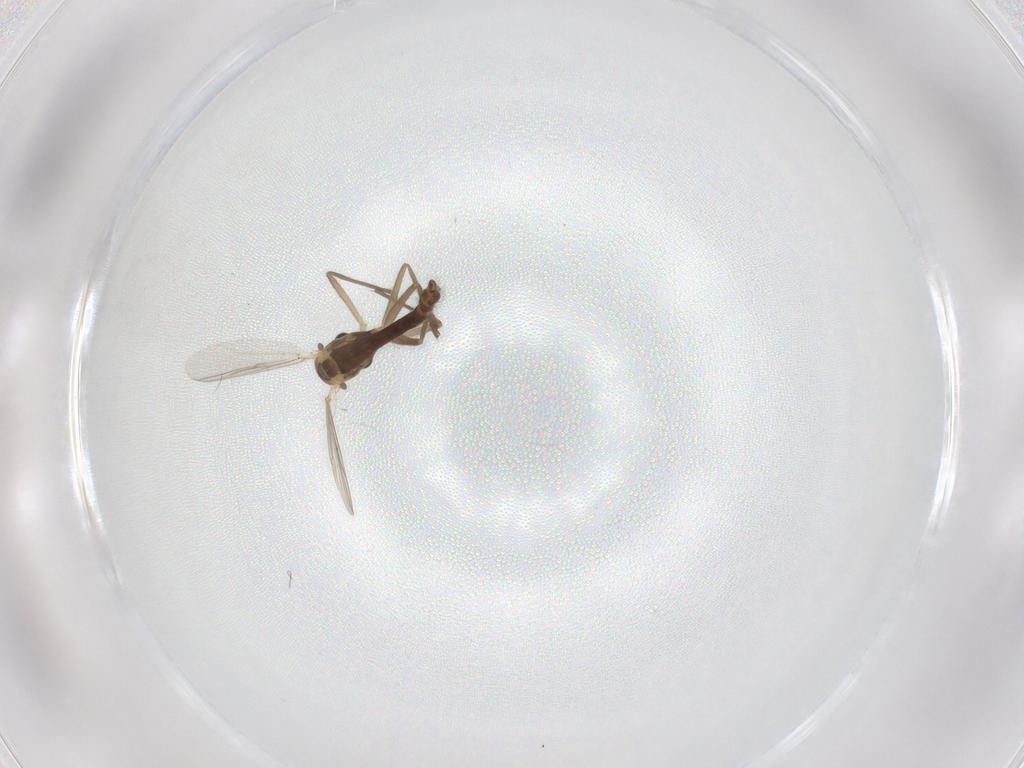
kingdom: Animalia
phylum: Arthropoda
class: Insecta
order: Diptera
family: Chironomidae
